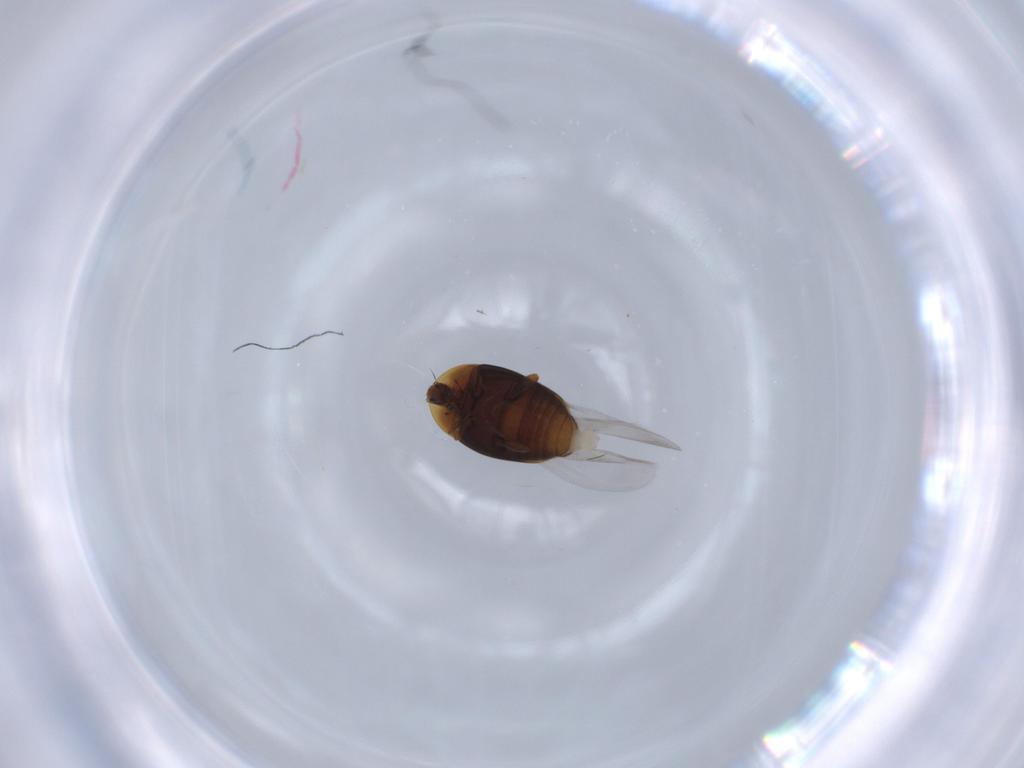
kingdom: Animalia
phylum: Arthropoda
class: Insecta
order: Coleoptera
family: Corylophidae
